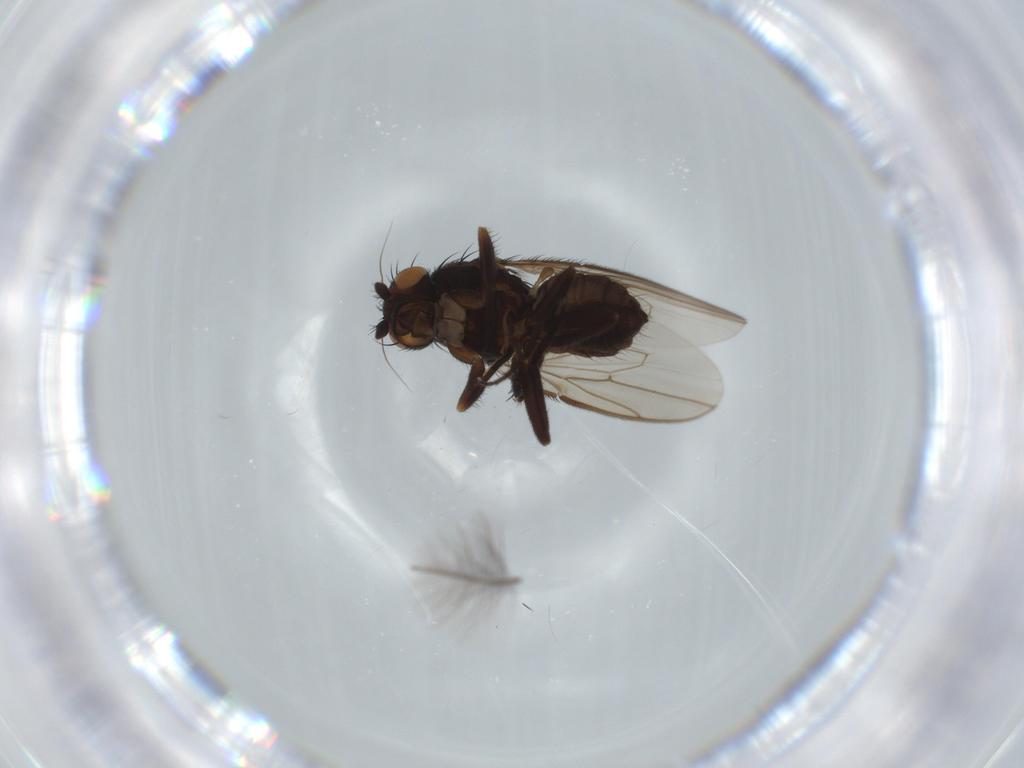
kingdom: Animalia
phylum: Arthropoda
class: Insecta
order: Diptera
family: Sphaeroceridae
